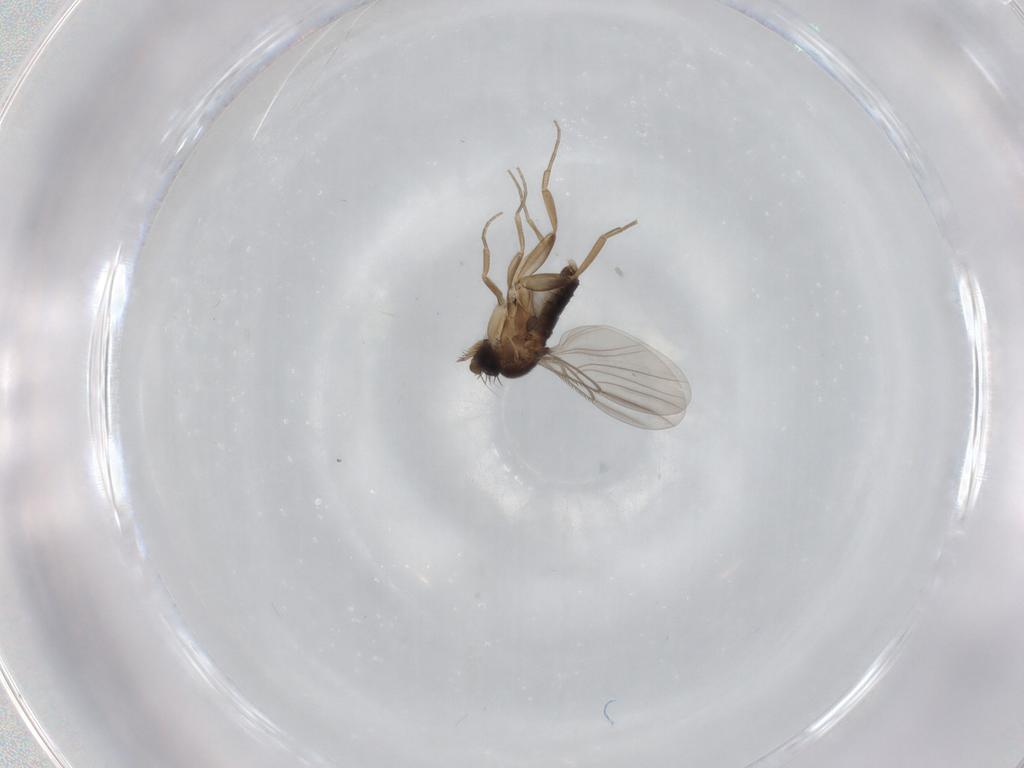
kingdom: Animalia
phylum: Arthropoda
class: Insecta
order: Diptera
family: Phoridae
